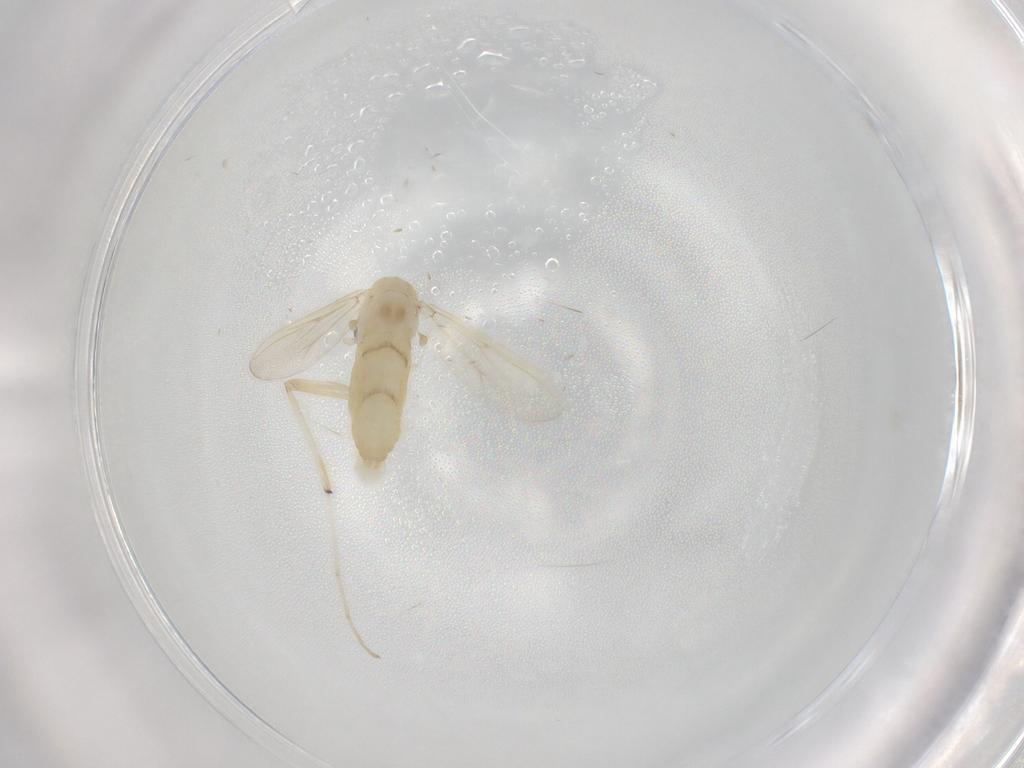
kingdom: Animalia
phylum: Arthropoda
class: Insecta
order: Diptera
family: Chironomidae
